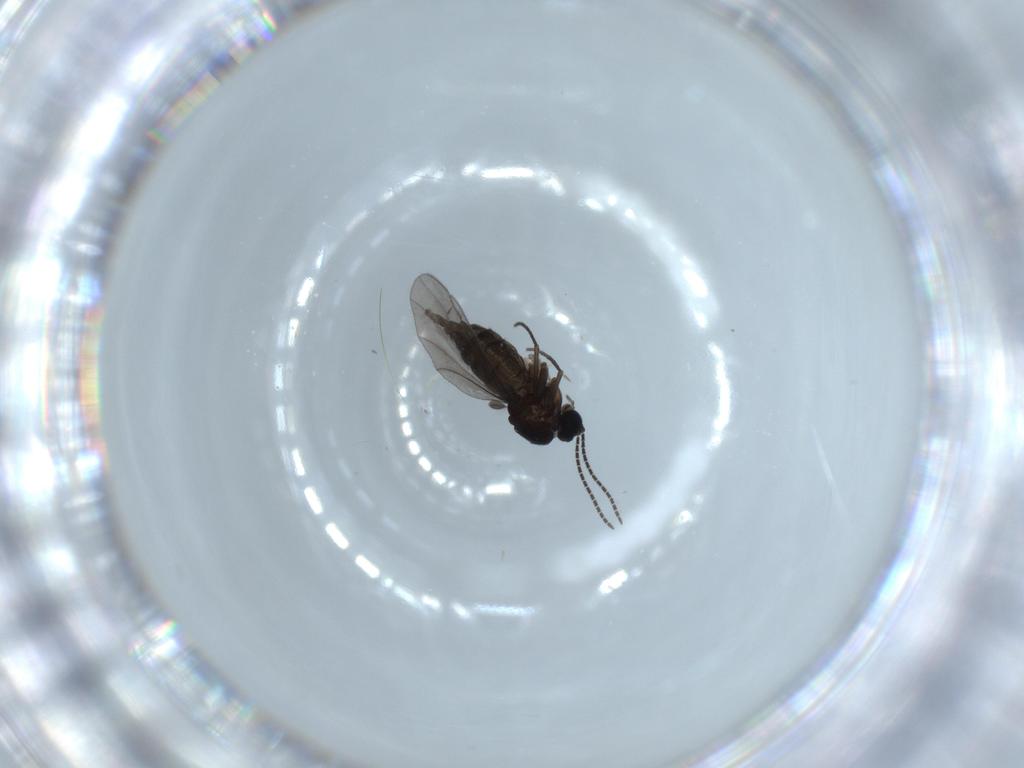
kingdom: Animalia
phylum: Arthropoda
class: Insecta
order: Diptera
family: Sciaridae
